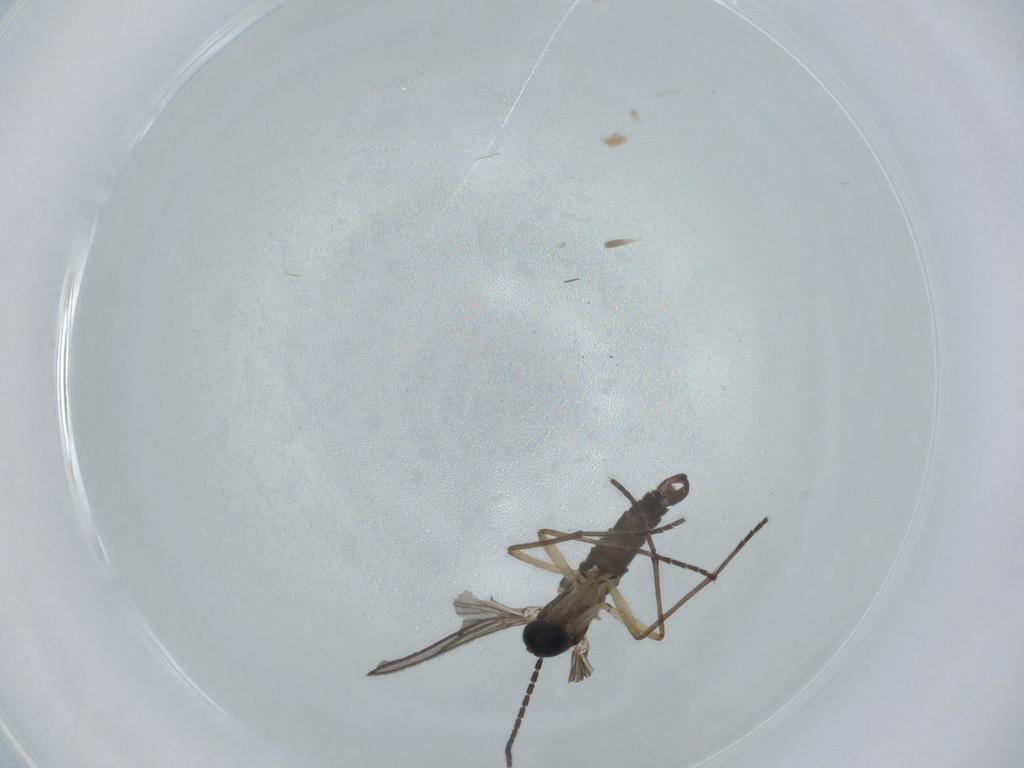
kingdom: Animalia
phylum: Arthropoda
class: Insecta
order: Diptera
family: Sciaridae
